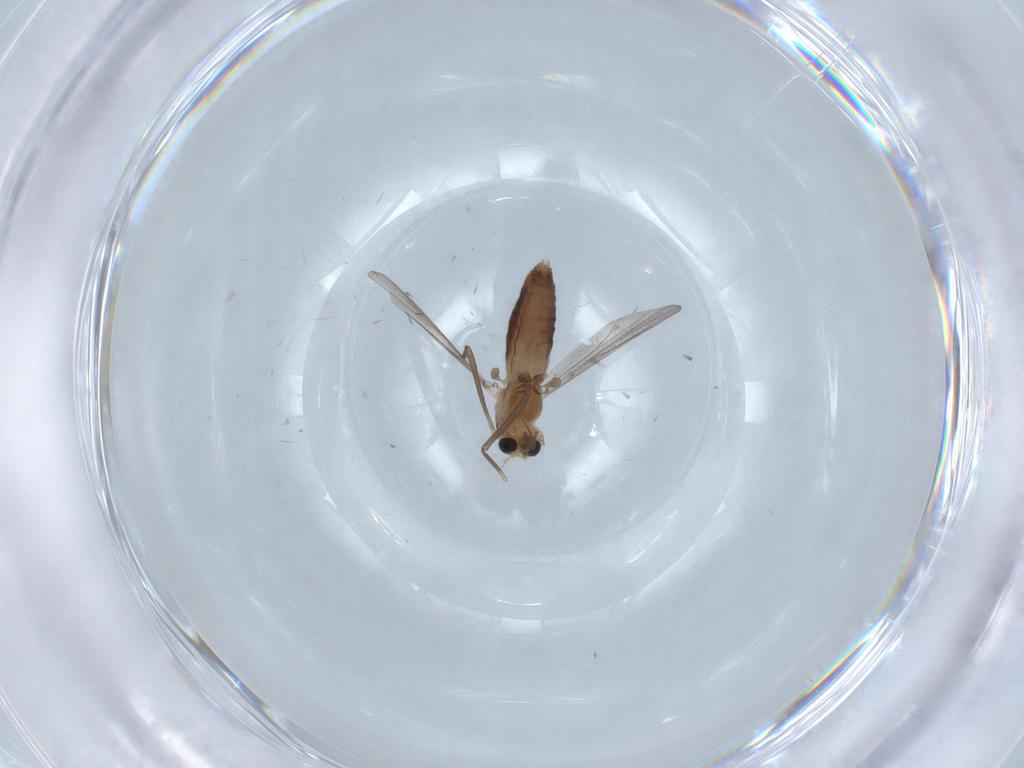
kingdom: Animalia
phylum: Arthropoda
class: Insecta
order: Diptera
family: Chironomidae
